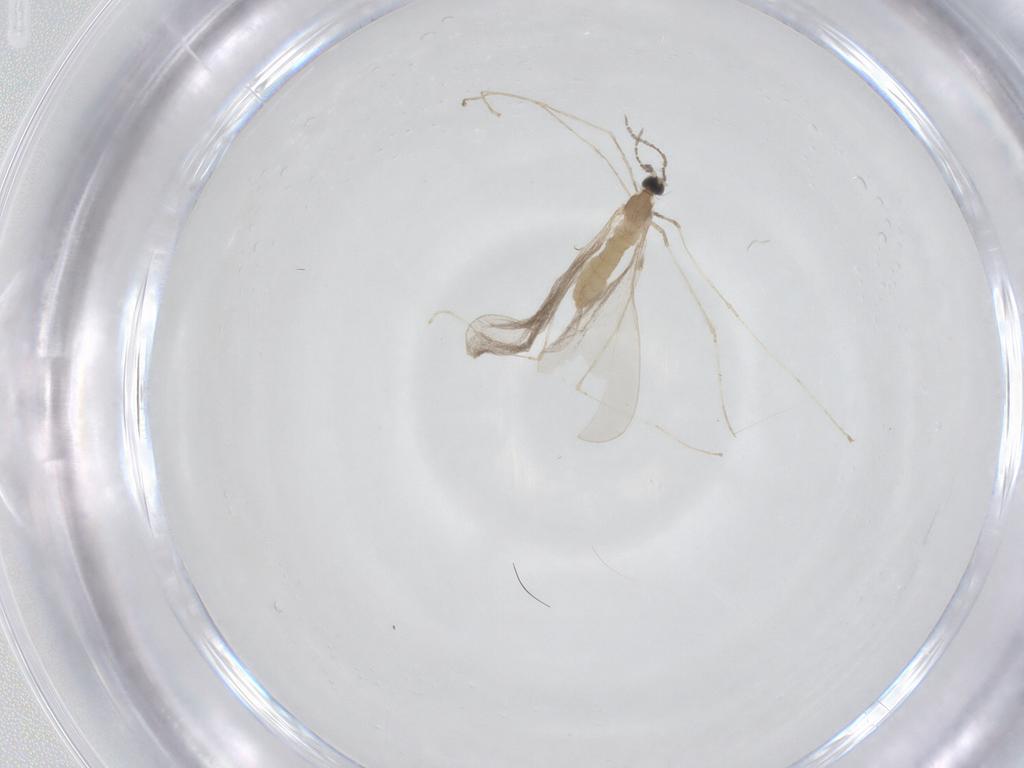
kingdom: Animalia
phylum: Arthropoda
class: Insecta
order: Diptera
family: Cecidomyiidae
